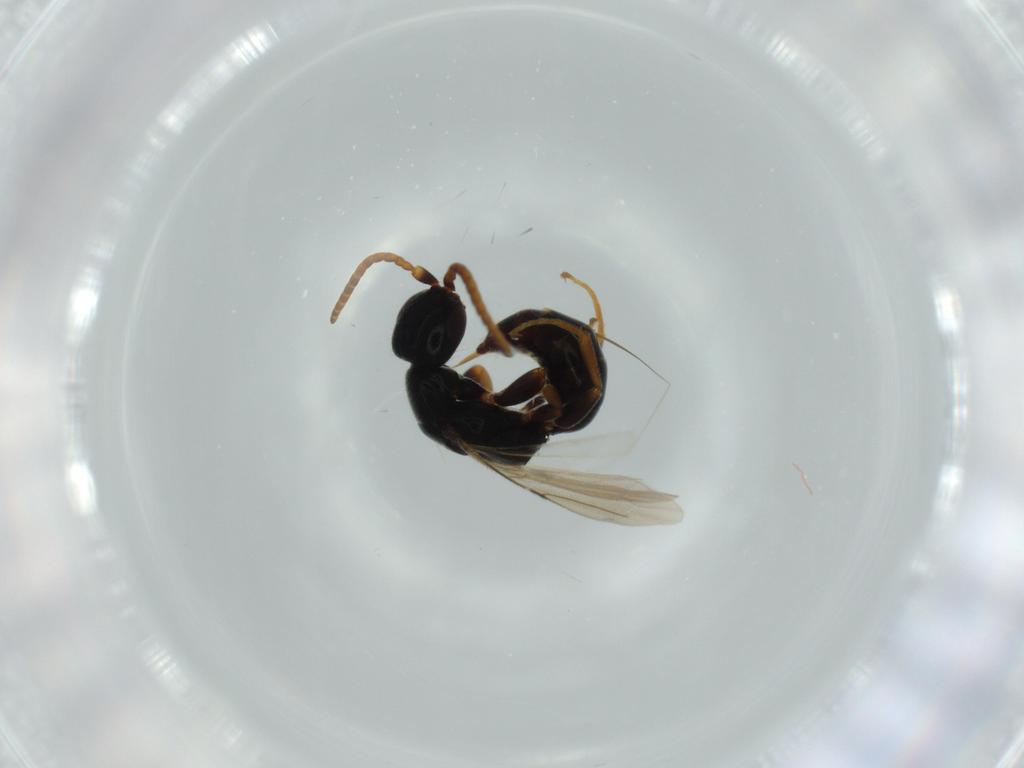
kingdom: Animalia
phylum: Arthropoda
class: Insecta
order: Hymenoptera
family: Bethylidae
